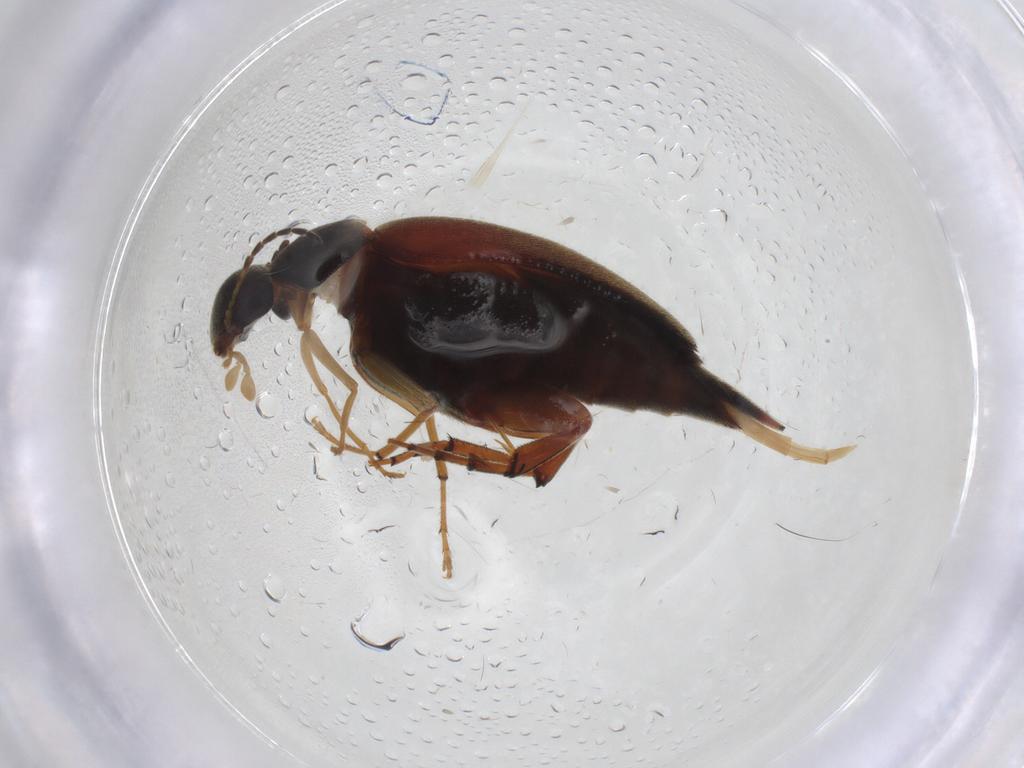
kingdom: Animalia
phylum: Arthropoda
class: Insecta
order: Coleoptera
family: Mordellidae
